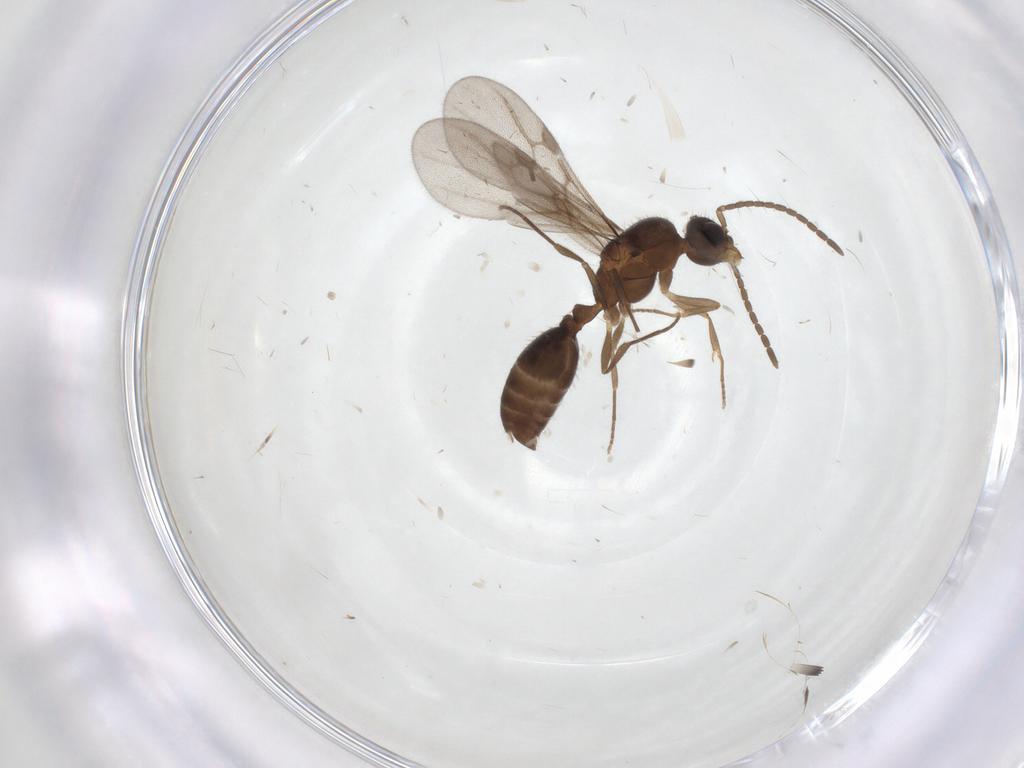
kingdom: Animalia
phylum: Arthropoda
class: Insecta
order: Hymenoptera
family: Formicidae
